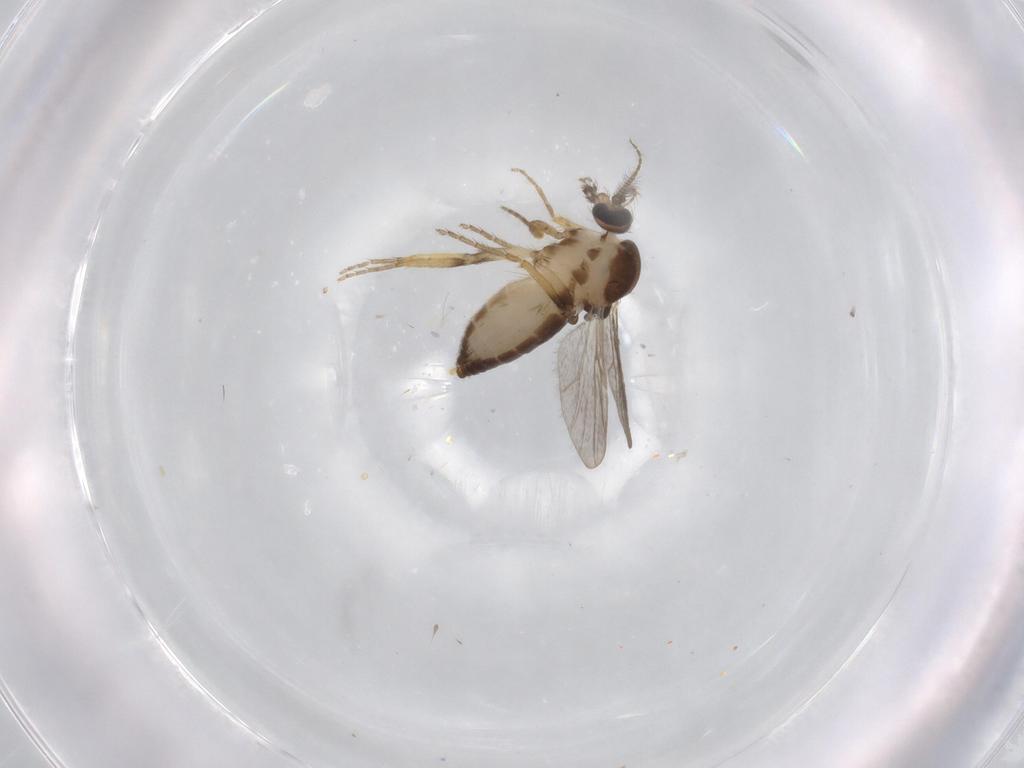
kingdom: Animalia
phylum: Arthropoda
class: Insecta
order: Diptera
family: Ceratopogonidae
